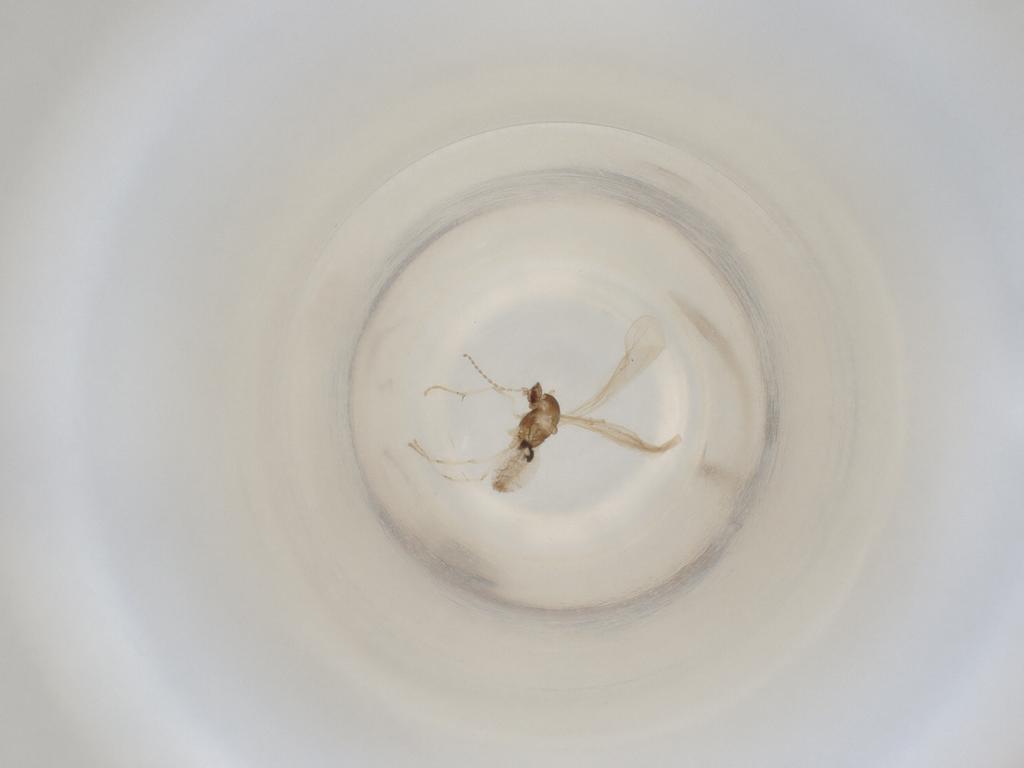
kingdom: Animalia
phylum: Arthropoda
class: Insecta
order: Diptera
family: Cecidomyiidae
